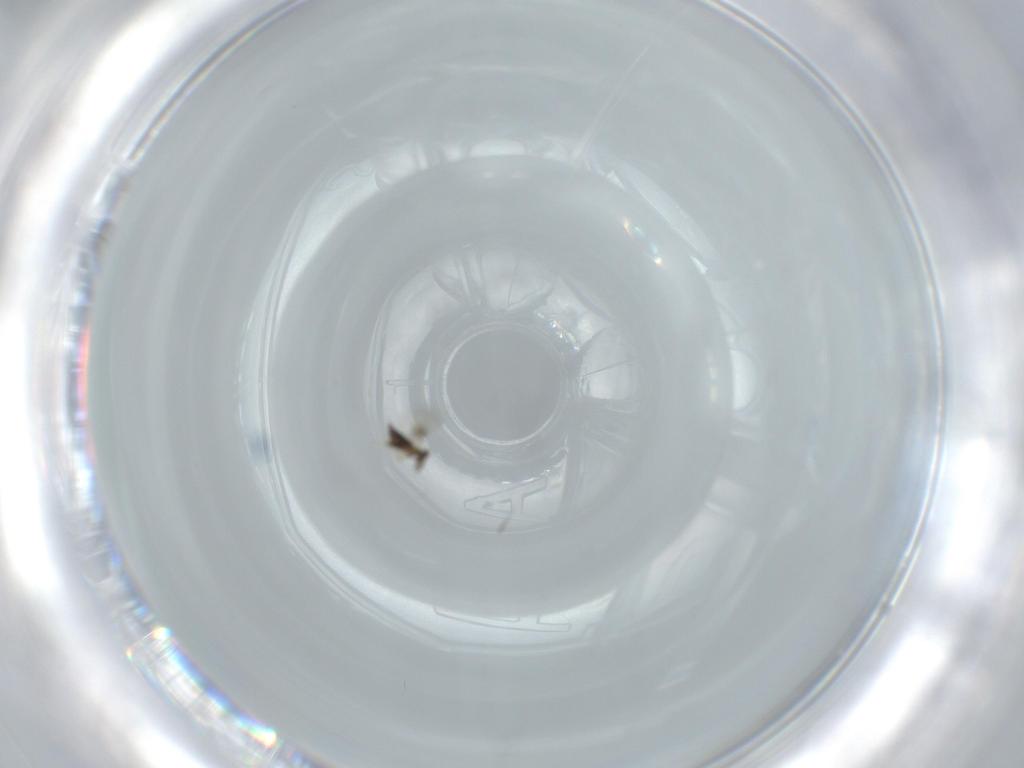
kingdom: Animalia
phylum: Arthropoda
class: Insecta
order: Hymenoptera
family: Signiphoridae
